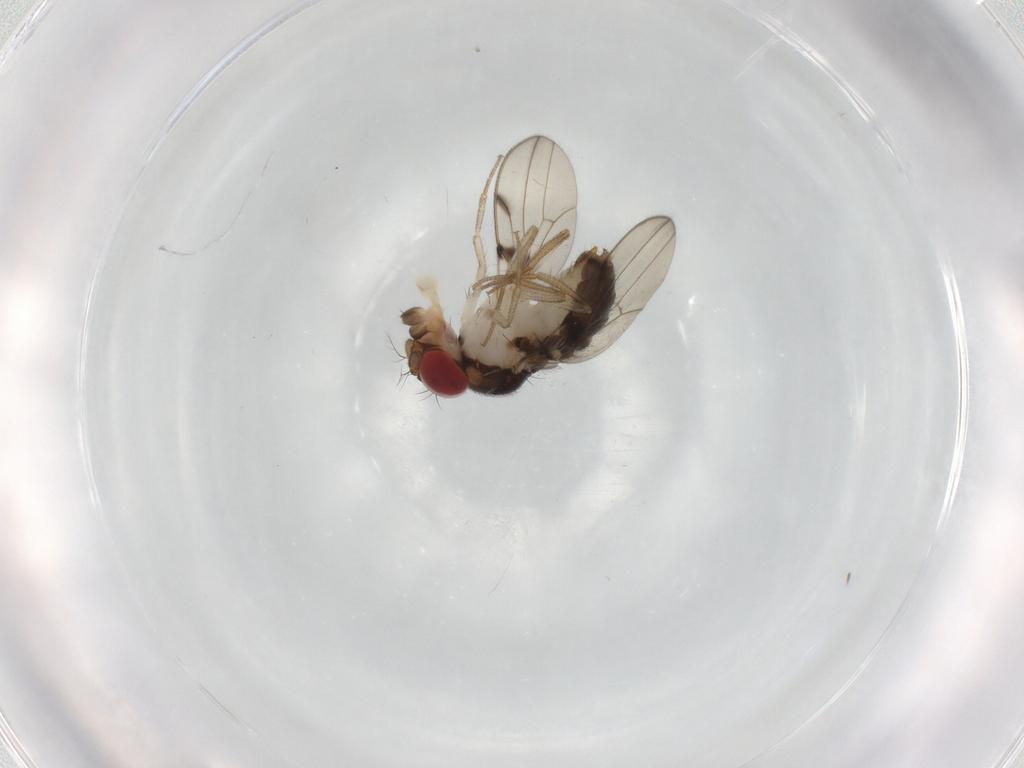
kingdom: Animalia
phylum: Arthropoda
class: Insecta
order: Diptera
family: Drosophilidae
